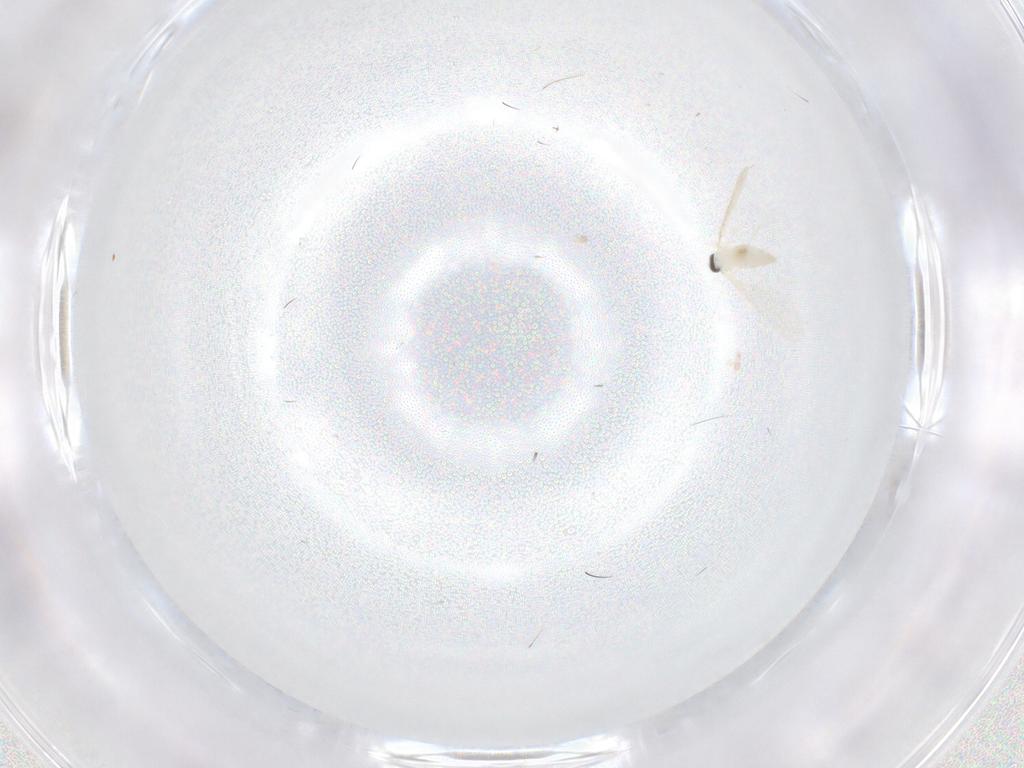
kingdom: Animalia
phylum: Arthropoda
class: Insecta
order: Diptera
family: Cecidomyiidae
